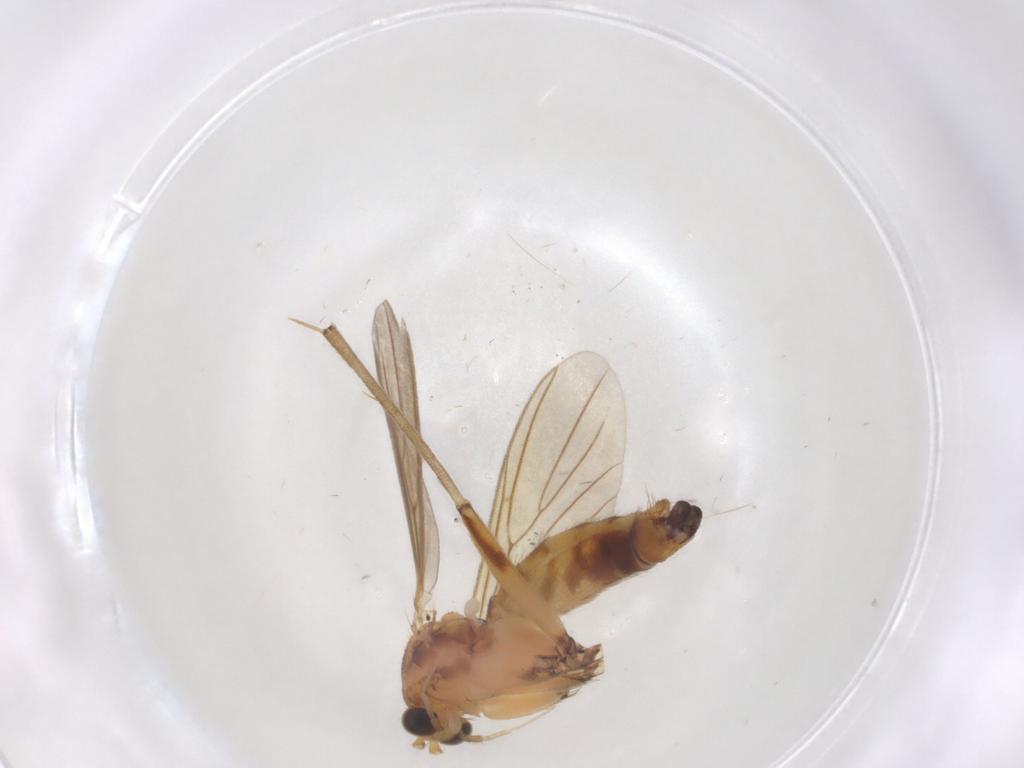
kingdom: Animalia
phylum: Arthropoda
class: Insecta
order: Diptera
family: Mycetophilidae
